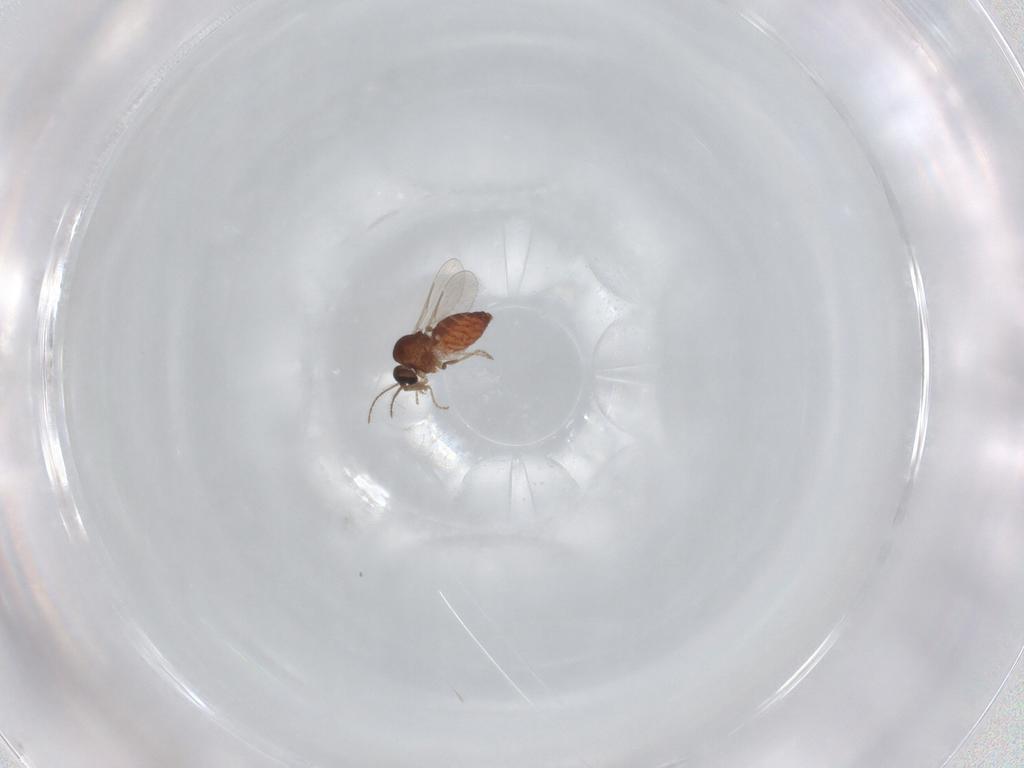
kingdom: Animalia
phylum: Arthropoda
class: Insecta
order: Diptera
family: Ceratopogonidae
